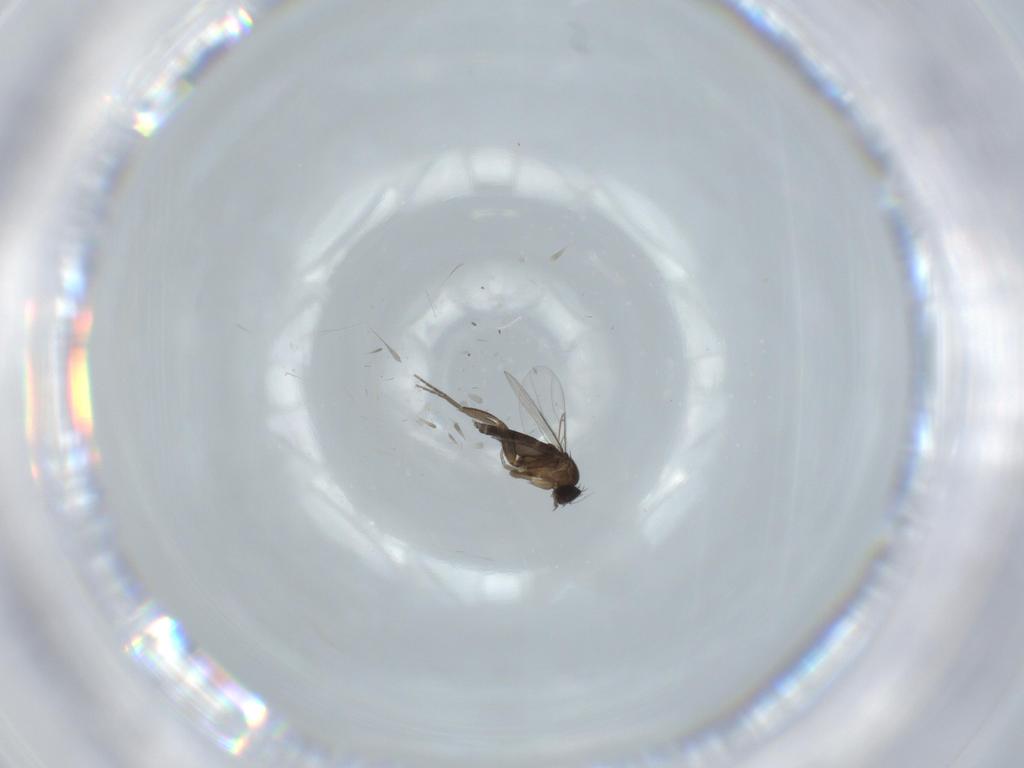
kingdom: Animalia
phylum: Arthropoda
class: Insecta
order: Diptera
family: Phoridae
